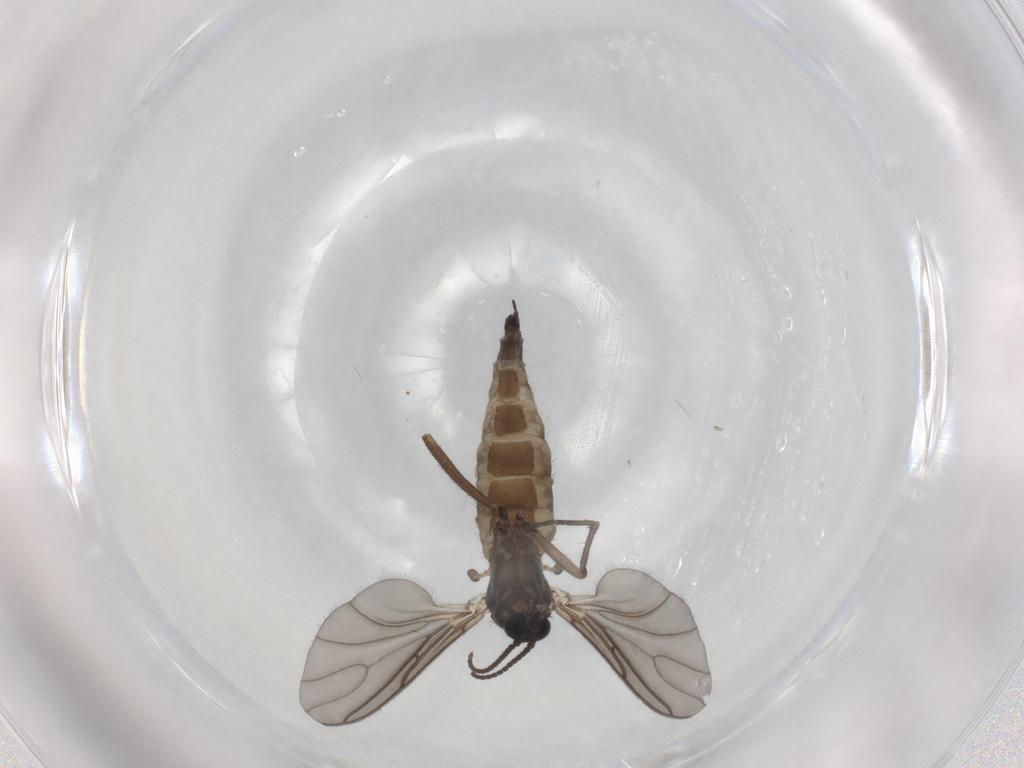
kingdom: Animalia
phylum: Arthropoda
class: Insecta
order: Diptera
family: Sciaridae
